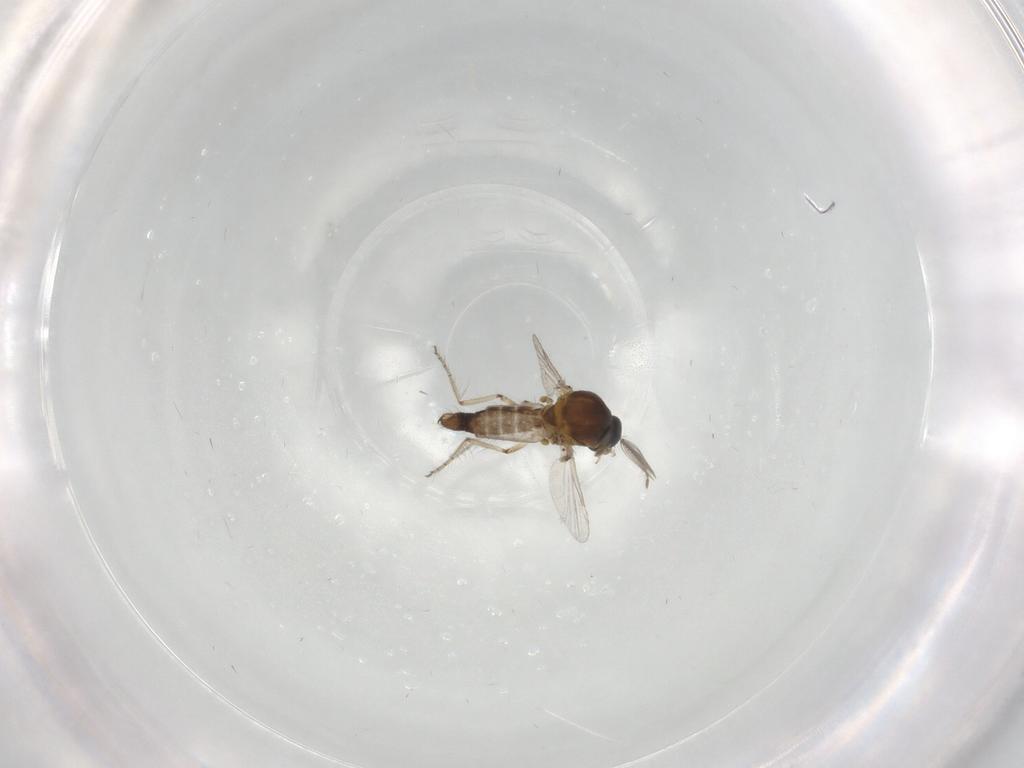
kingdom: Animalia
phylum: Arthropoda
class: Insecta
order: Diptera
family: Ceratopogonidae
